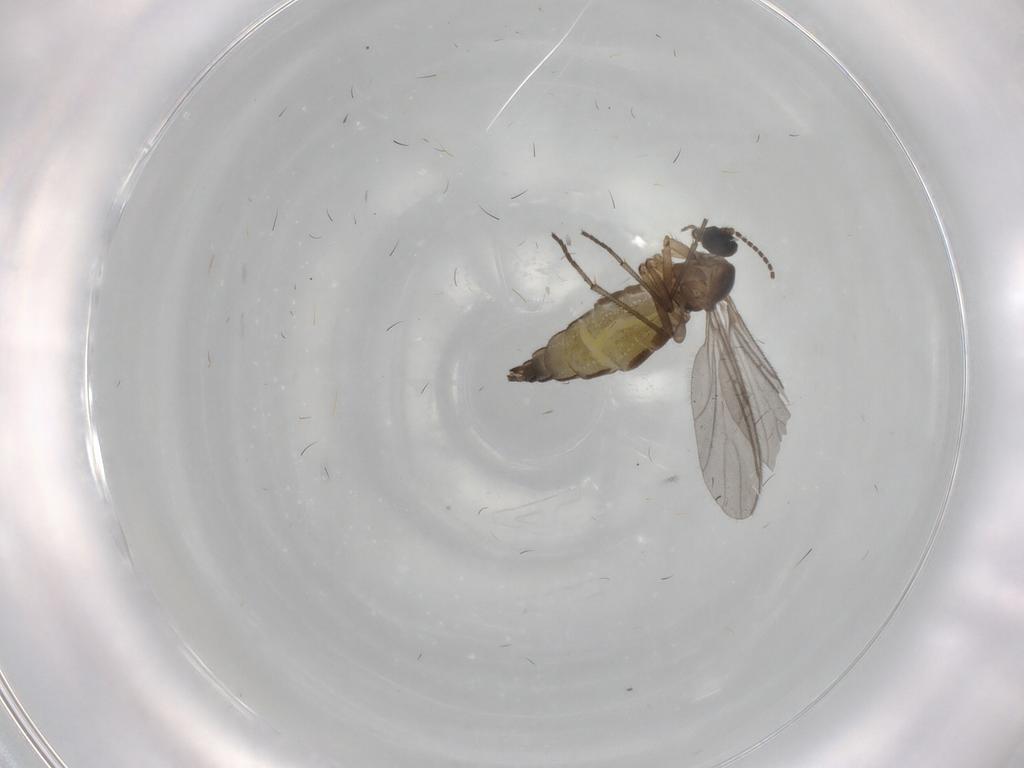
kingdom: Animalia
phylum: Arthropoda
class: Insecta
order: Diptera
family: Sciaridae
